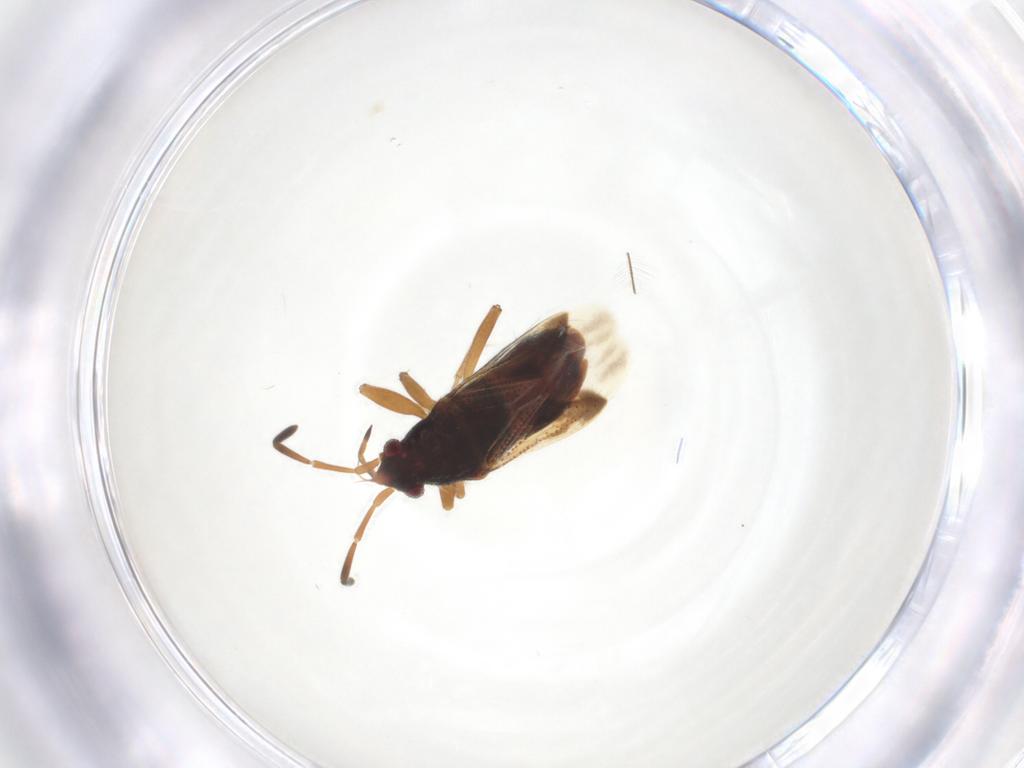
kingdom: Animalia
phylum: Arthropoda
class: Insecta
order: Hemiptera
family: Rhyparochromidae
